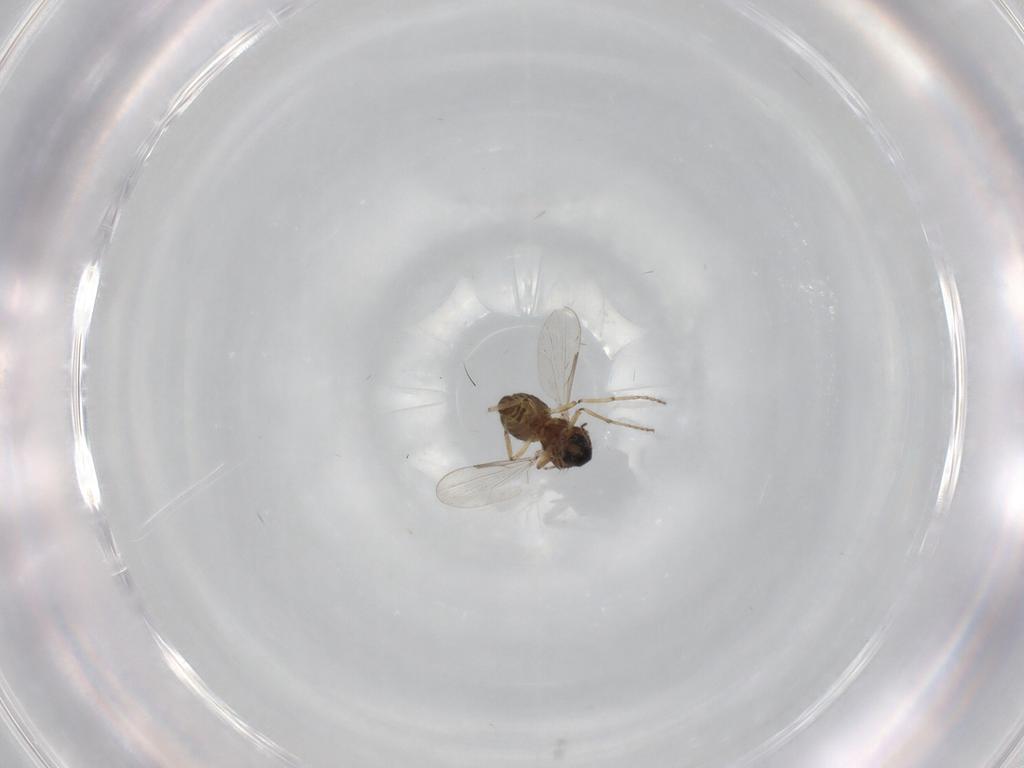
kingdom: Animalia
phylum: Arthropoda
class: Insecta
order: Diptera
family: Ceratopogonidae
